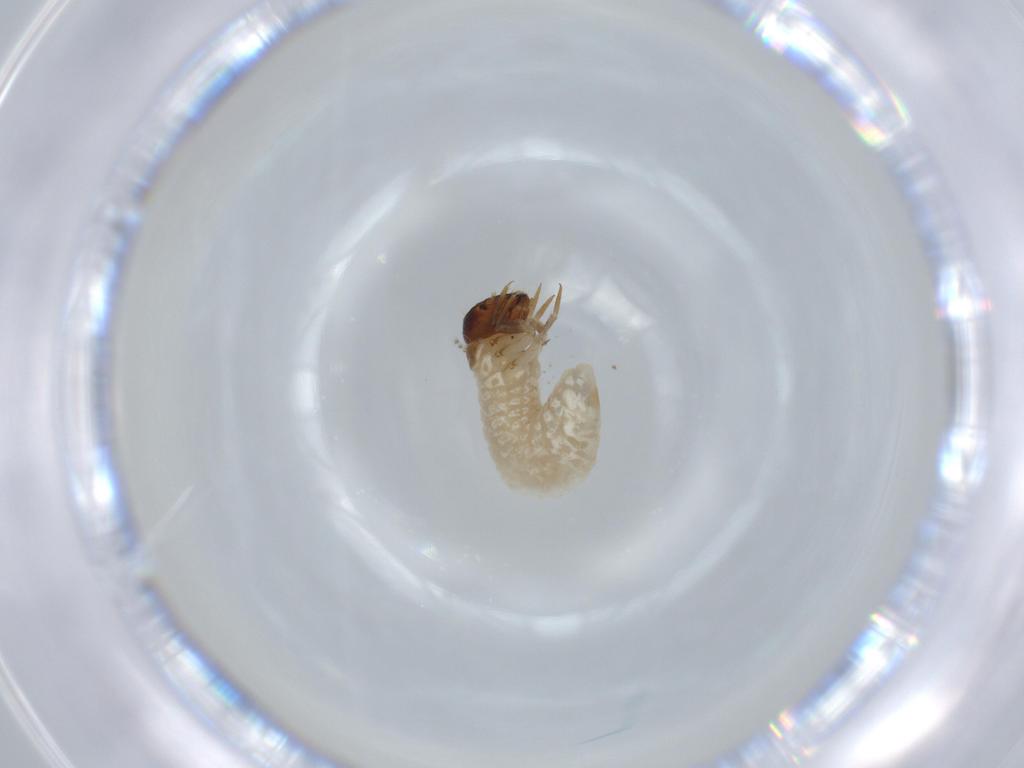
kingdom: Animalia
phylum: Arthropoda
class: Insecta
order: Diptera
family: Psychodidae
